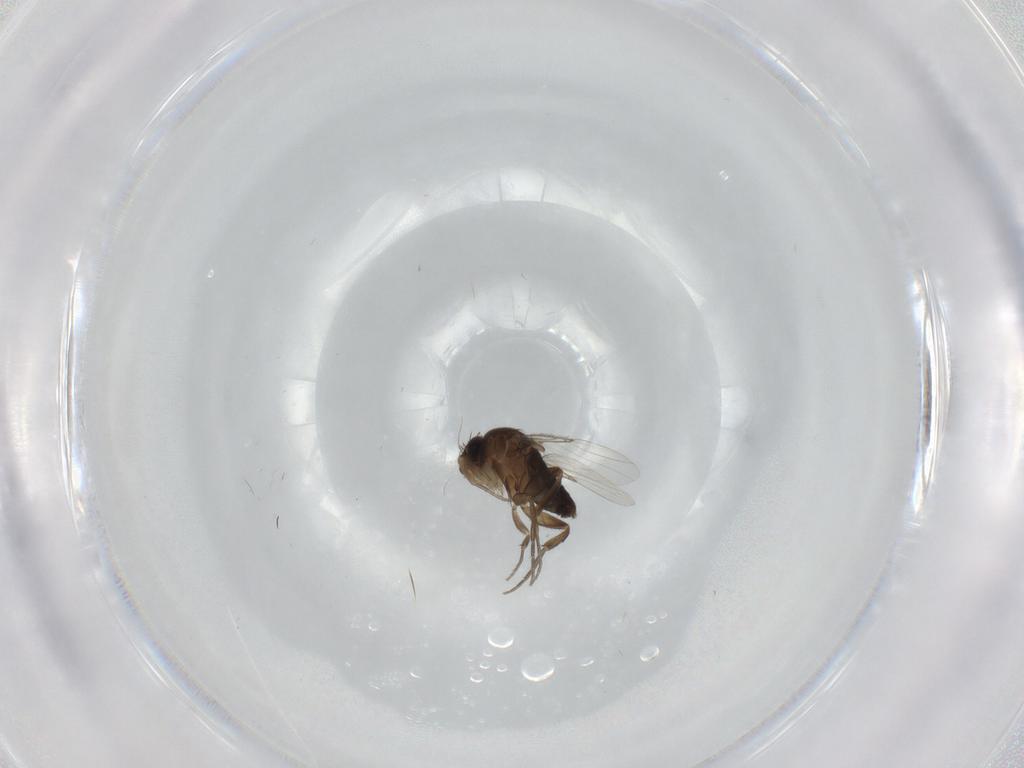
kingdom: Animalia
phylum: Arthropoda
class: Insecta
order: Diptera
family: Phoridae
